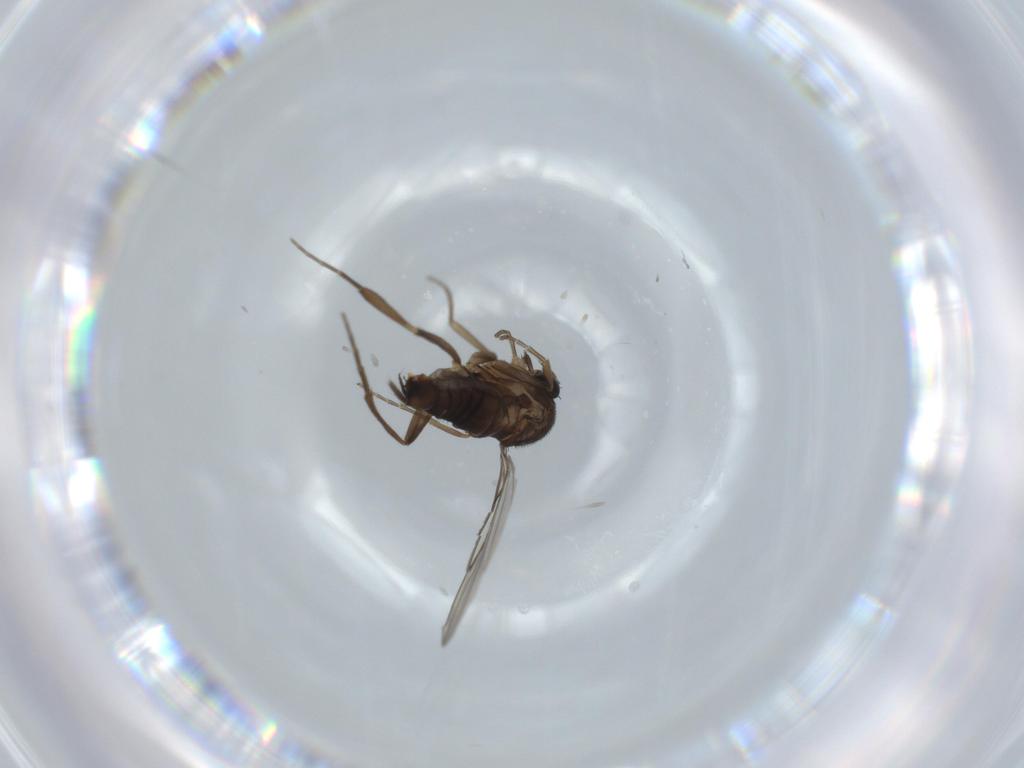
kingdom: Animalia
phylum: Arthropoda
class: Insecta
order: Diptera
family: Phoridae
